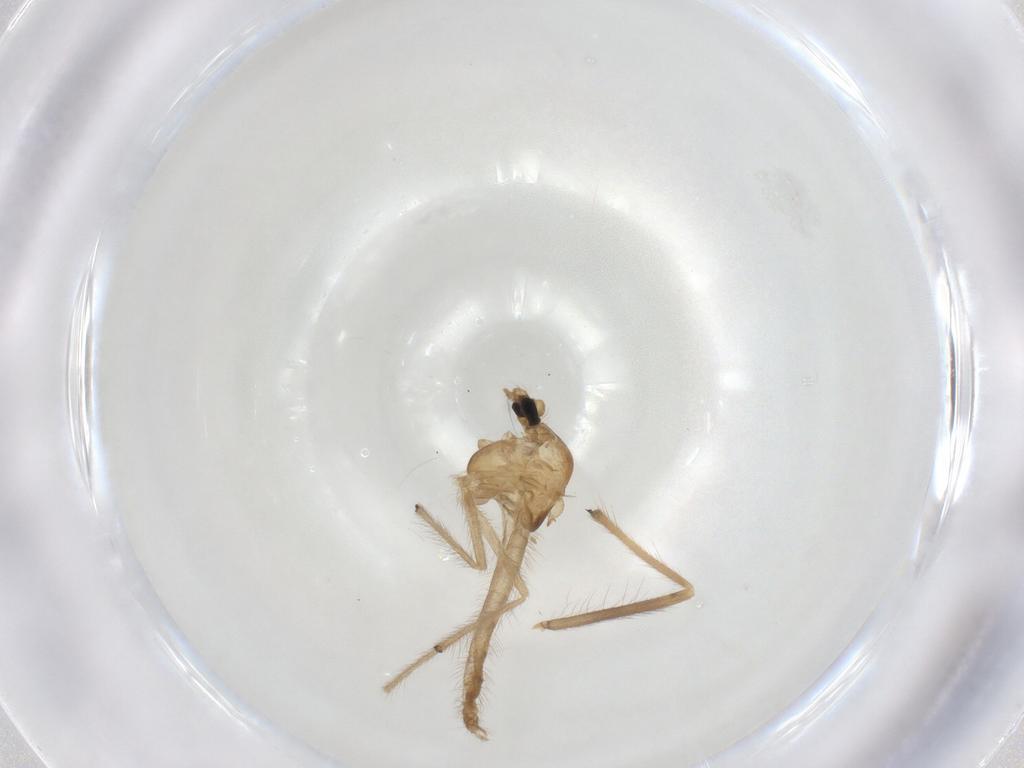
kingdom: Animalia
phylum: Arthropoda
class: Insecta
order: Diptera
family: Chironomidae
